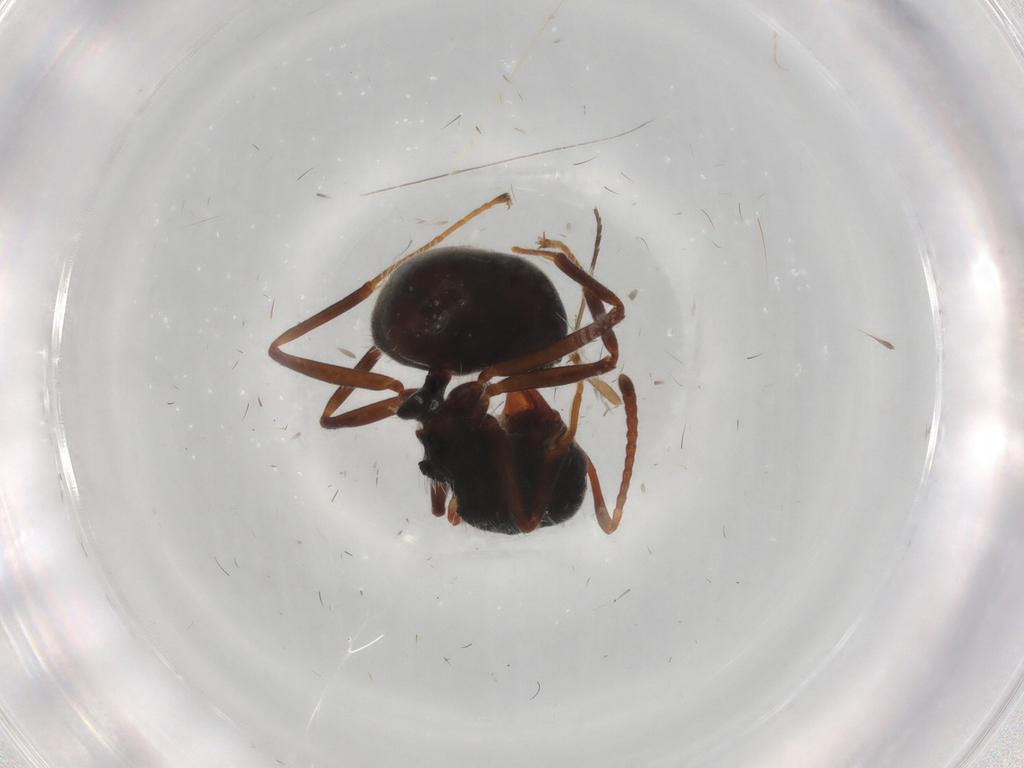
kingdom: Animalia
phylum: Arthropoda
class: Insecta
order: Hymenoptera
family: Formicidae
